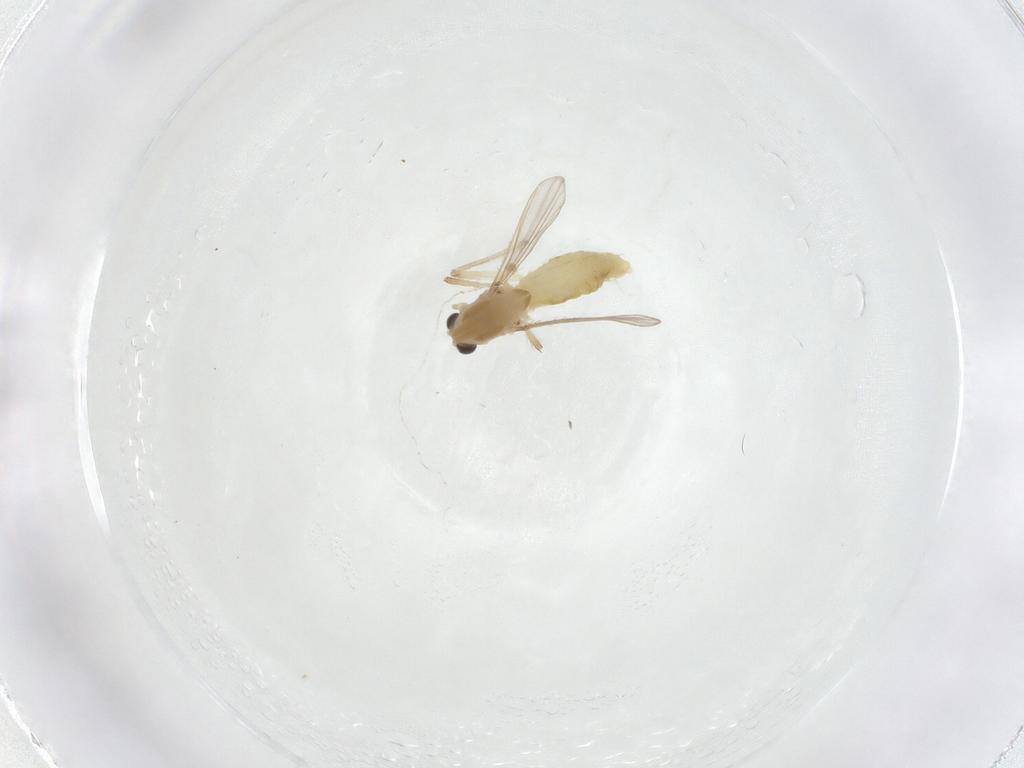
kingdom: Animalia
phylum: Arthropoda
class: Insecta
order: Diptera
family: Chironomidae
